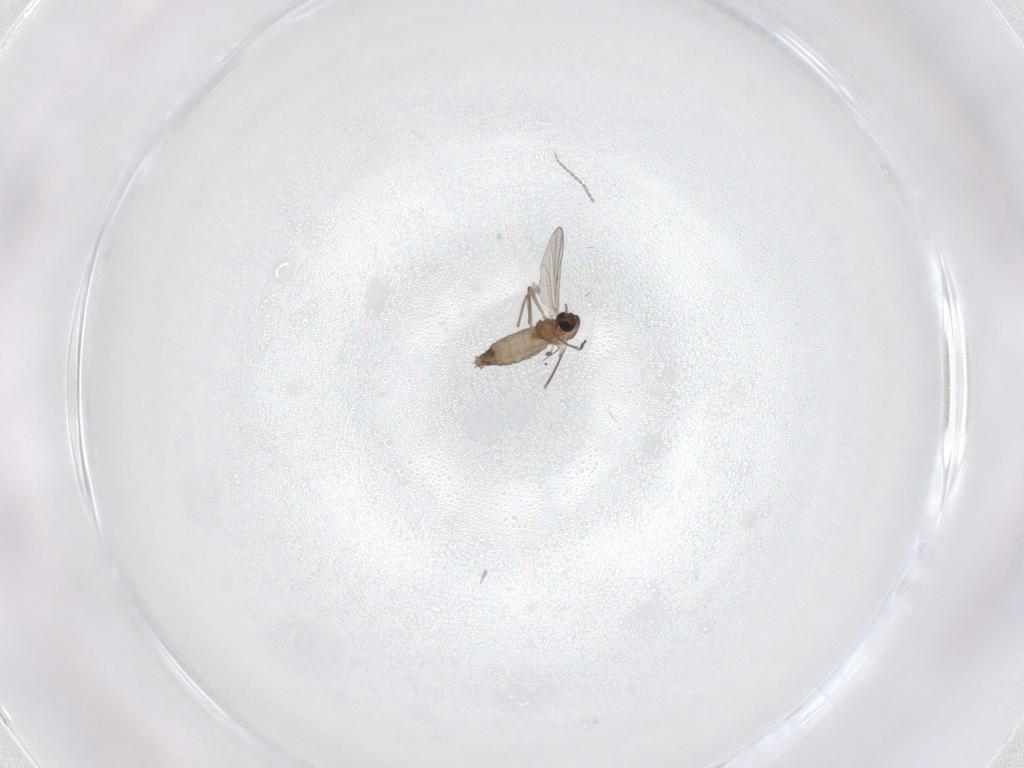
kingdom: Animalia
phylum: Arthropoda
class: Insecta
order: Diptera
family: Chironomidae
